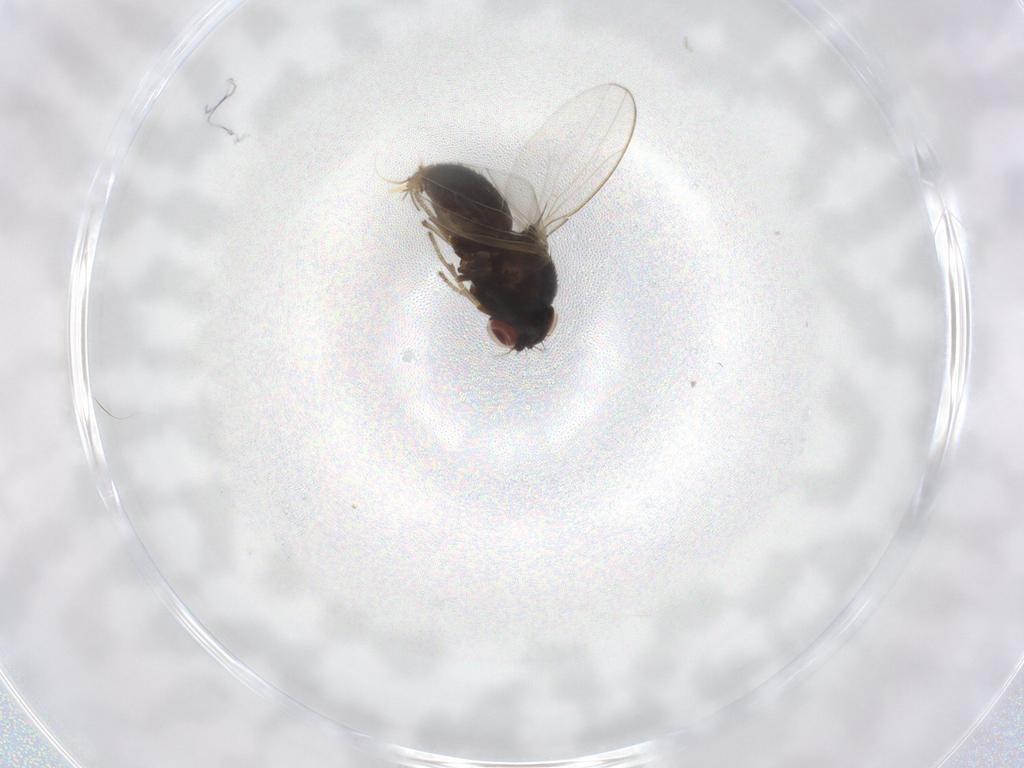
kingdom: Animalia
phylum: Arthropoda
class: Insecta
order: Diptera
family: Drosophilidae
